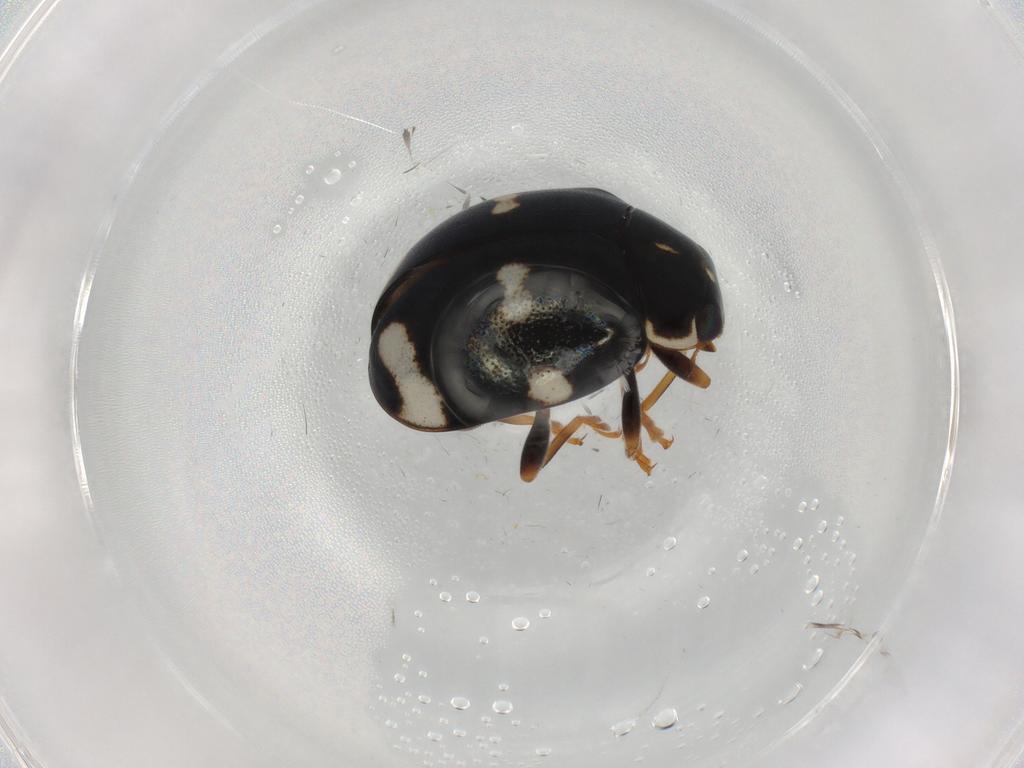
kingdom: Animalia
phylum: Arthropoda
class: Insecta
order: Coleoptera
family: Coccinellidae
